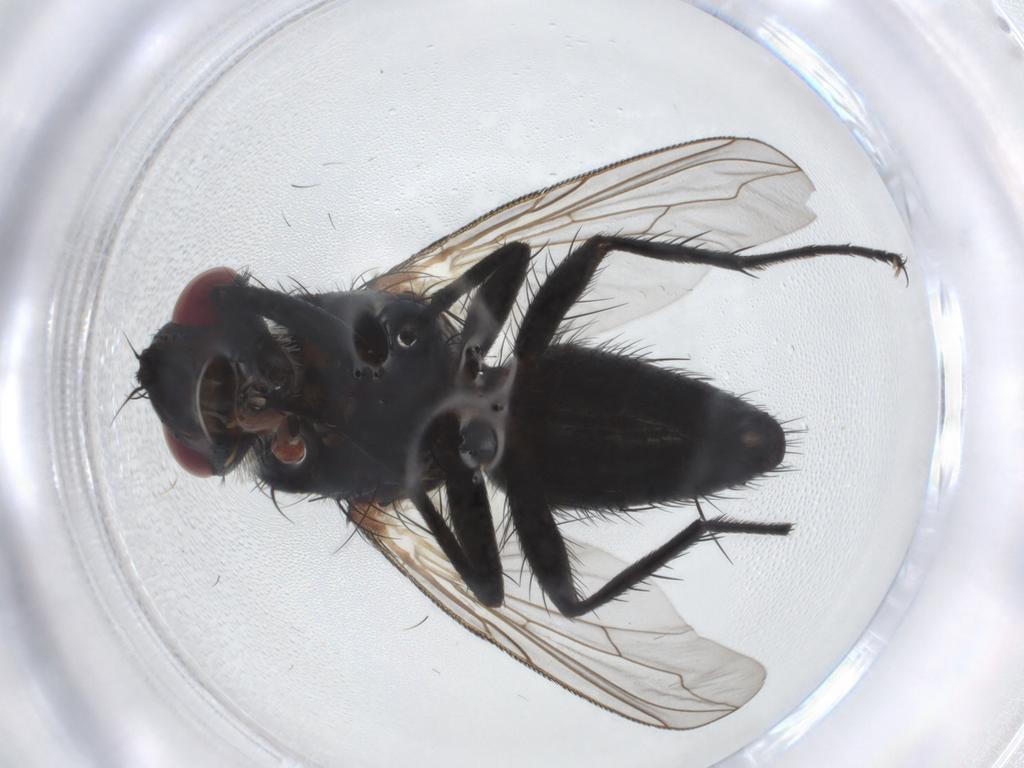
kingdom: Animalia
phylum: Arthropoda
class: Insecta
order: Diptera
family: Tachinidae
